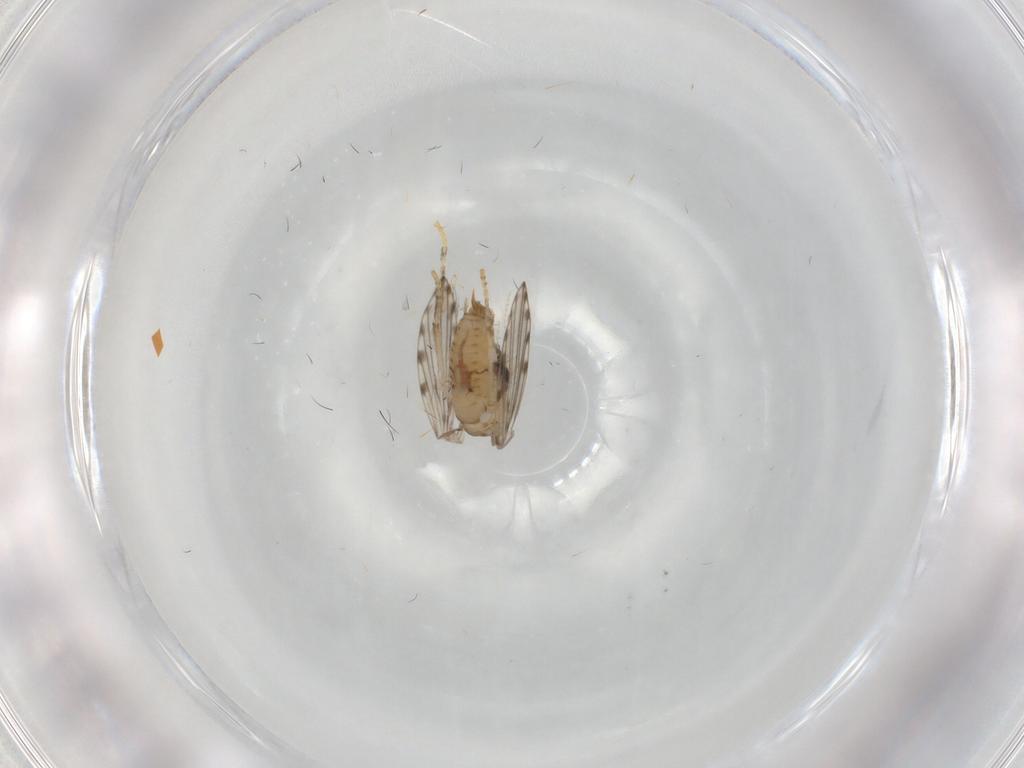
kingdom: Animalia
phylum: Arthropoda
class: Insecta
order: Diptera
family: Psychodidae
